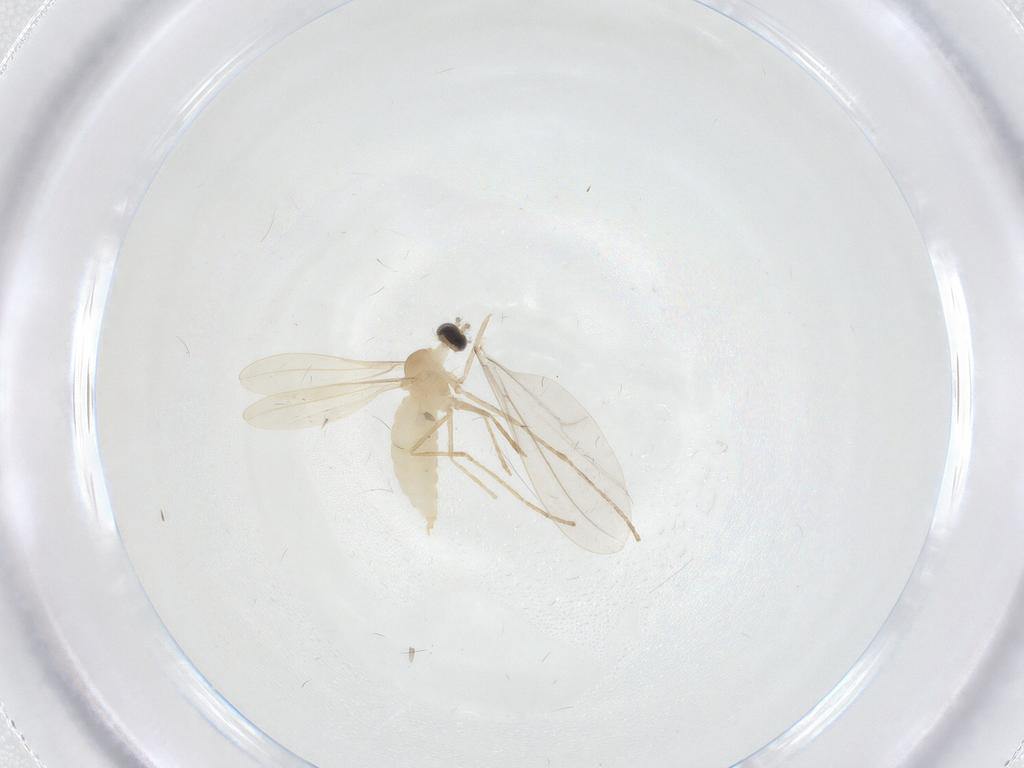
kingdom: Animalia
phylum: Arthropoda
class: Insecta
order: Diptera
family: Cecidomyiidae
